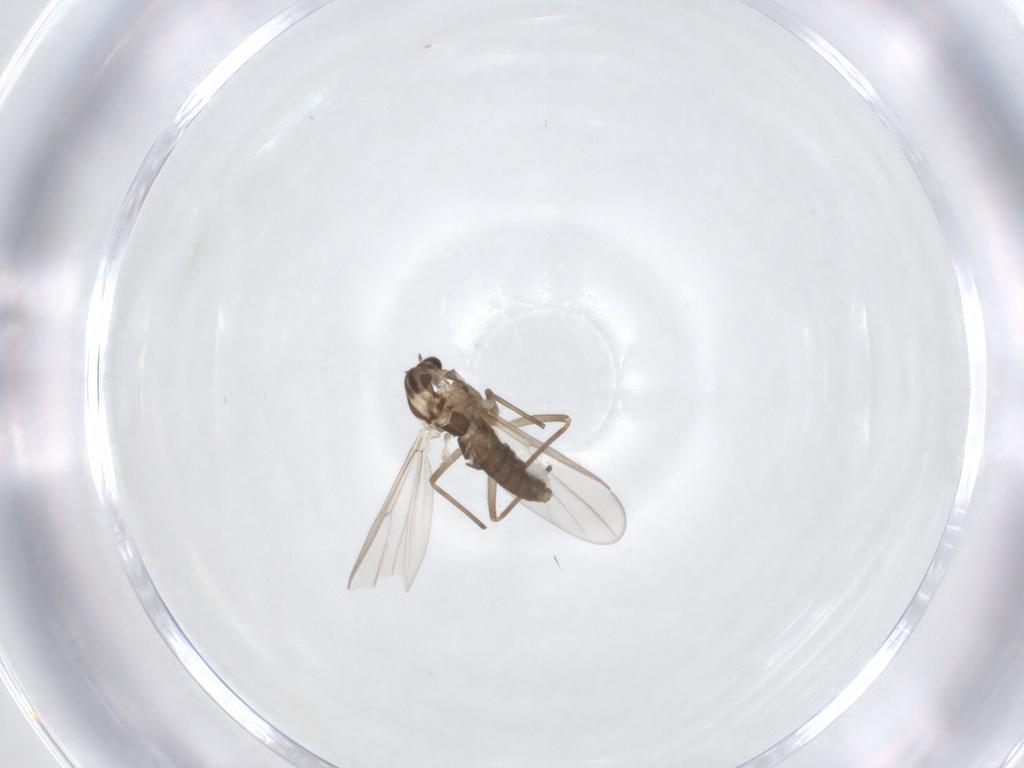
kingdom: Animalia
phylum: Arthropoda
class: Insecta
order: Diptera
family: Chironomidae
